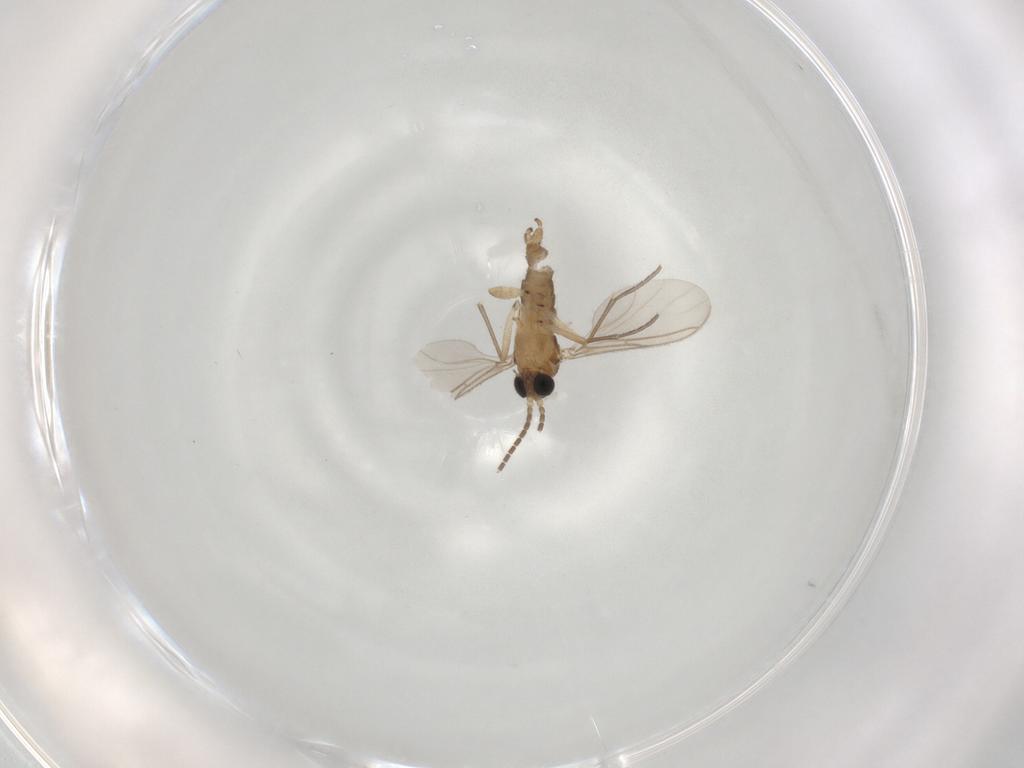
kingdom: Animalia
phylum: Arthropoda
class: Insecta
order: Diptera
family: Sciaridae
